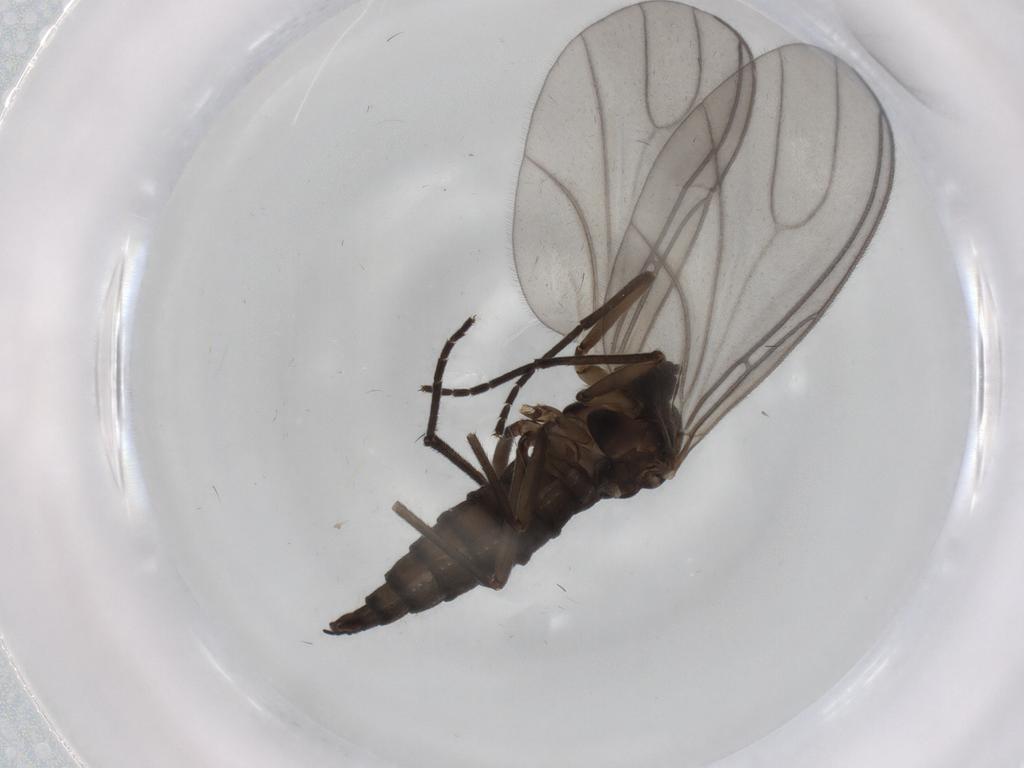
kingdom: Animalia
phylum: Arthropoda
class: Insecta
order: Diptera
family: Sciaridae
